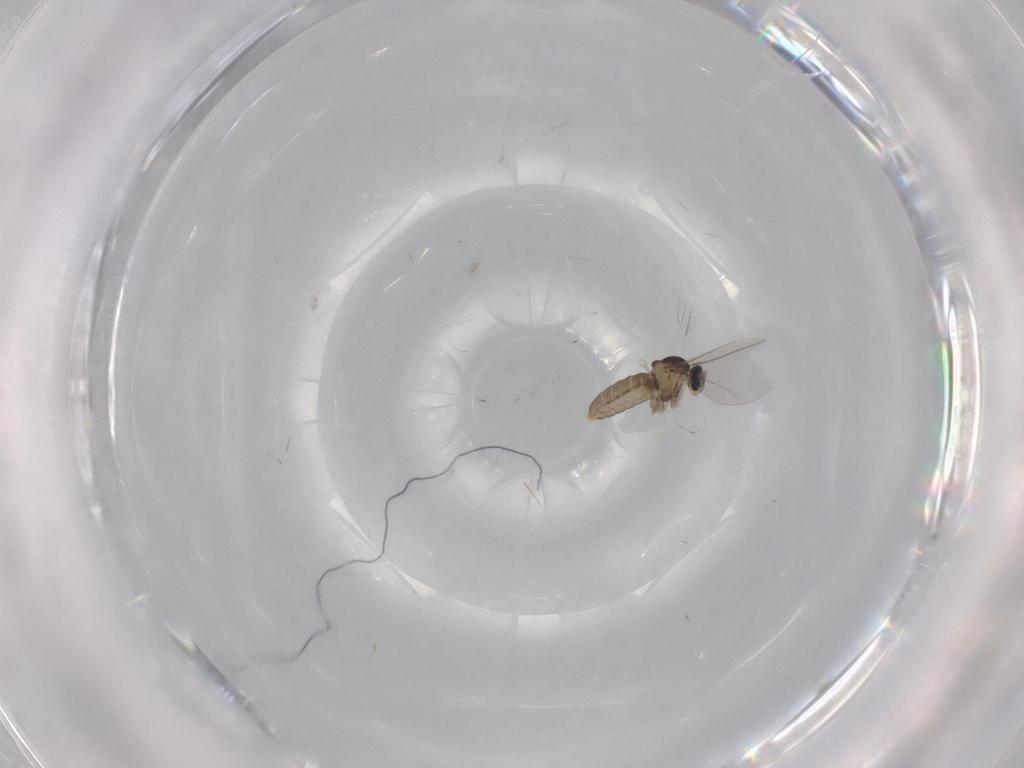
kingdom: Animalia
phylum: Arthropoda
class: Insecta
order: Diptera
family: Cecidomyiidae
